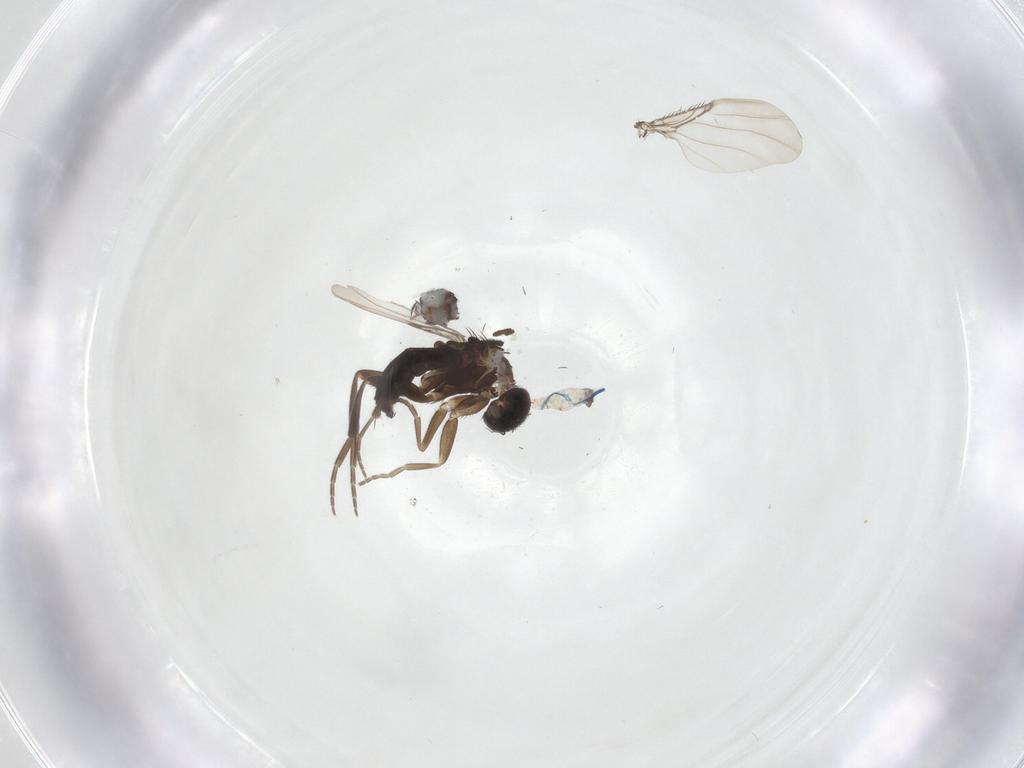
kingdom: Animalia
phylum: Arthropoda
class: Insecta
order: Diptera
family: Phoridae
